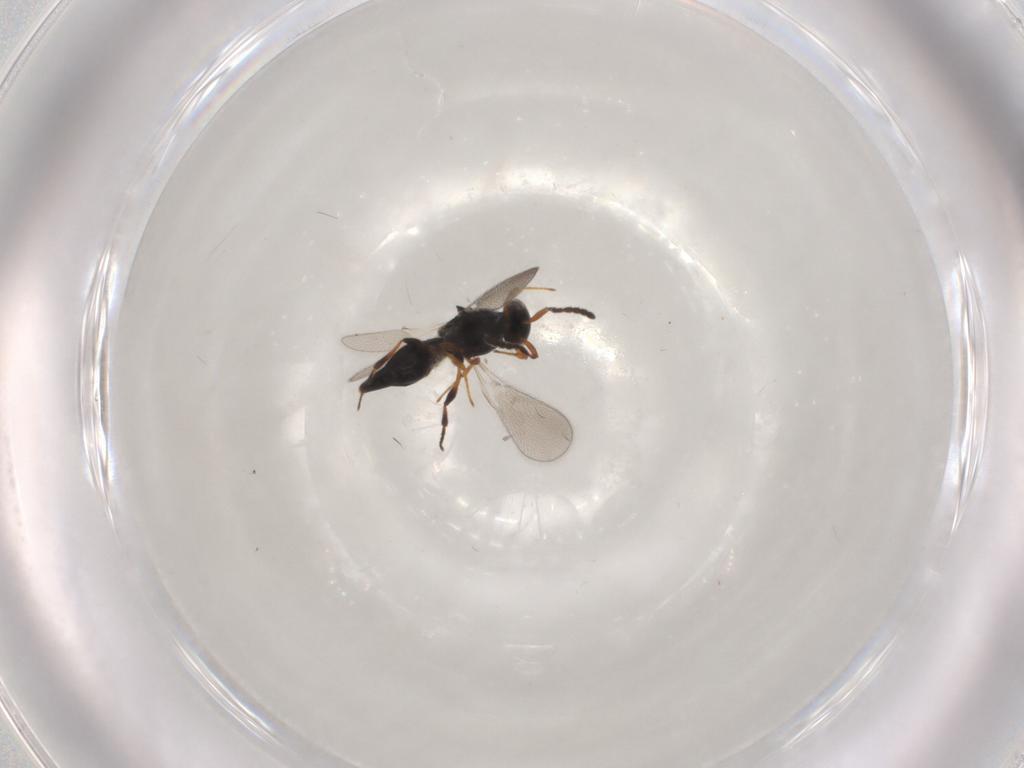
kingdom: Animalia
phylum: Arthropoda
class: Insecta
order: Hymenoptera
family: Platygastridae
